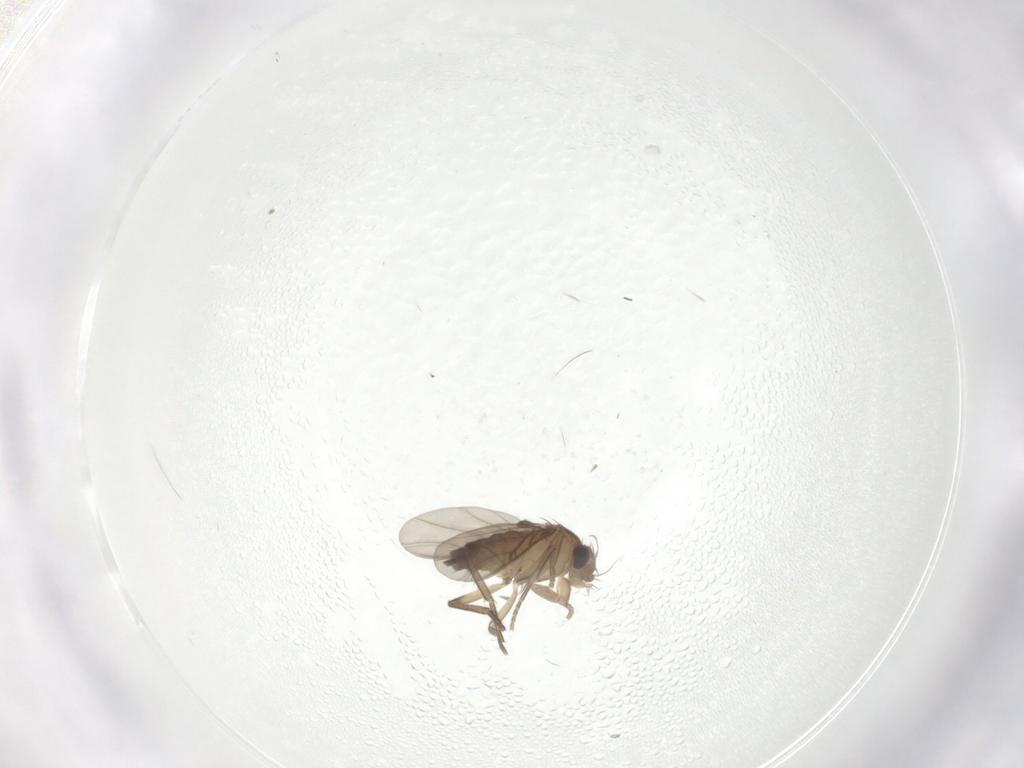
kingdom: Animalia
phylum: Arthropoda
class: Insecta
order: Diptera
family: Phoridae
